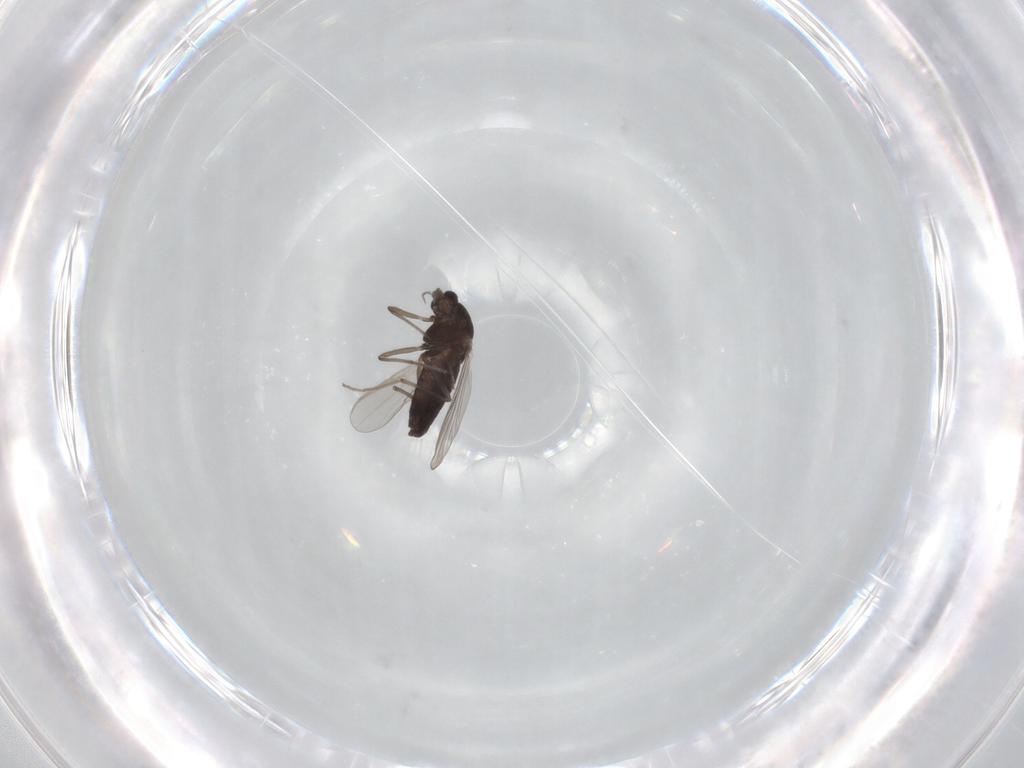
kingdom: Animalia
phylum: Arthropoda
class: Insecta
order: Diptera
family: Chironomidae
